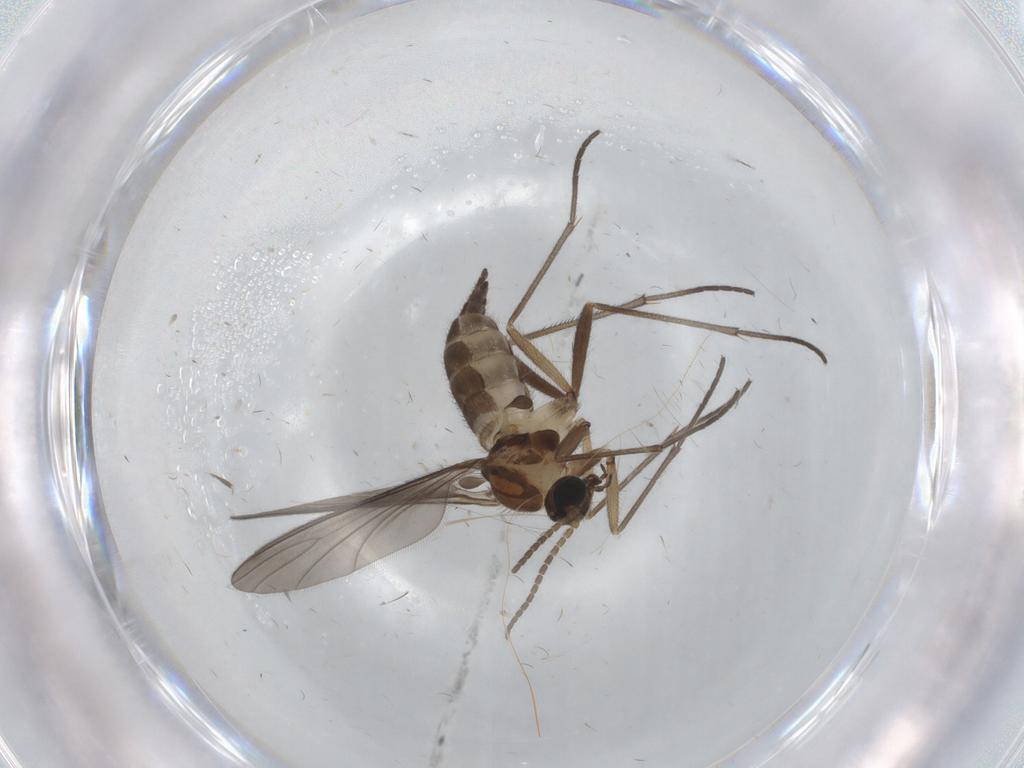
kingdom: Animalia
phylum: Arthropoda
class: Insecta
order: Diptera
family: Sciaridae
